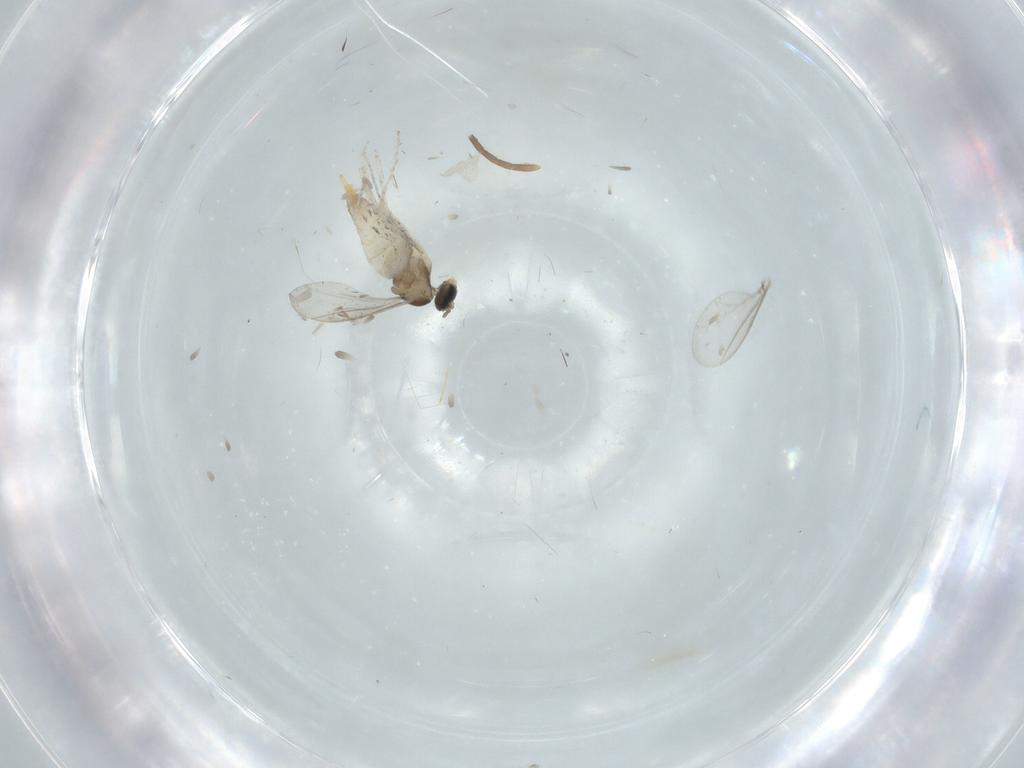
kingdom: Animalia
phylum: Arthropoda
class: Insecta
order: Diptera
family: Cecidomyiidae
